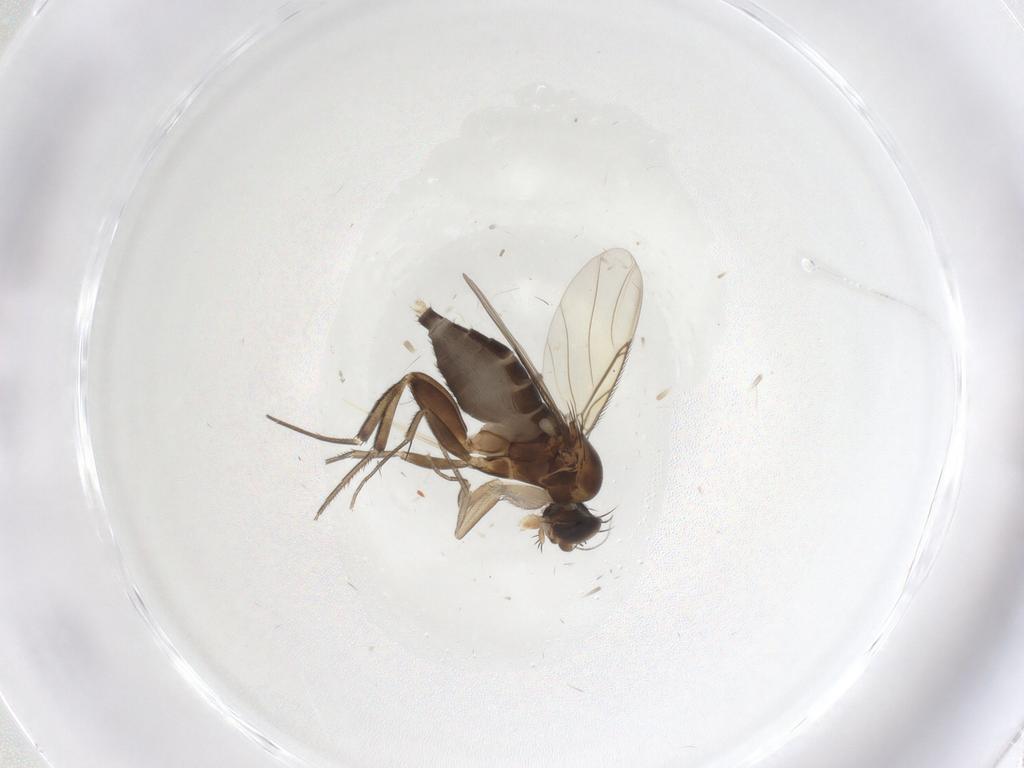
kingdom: Animalia
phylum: Arthropoda
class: Insecta
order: Diptera
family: Phoridae
